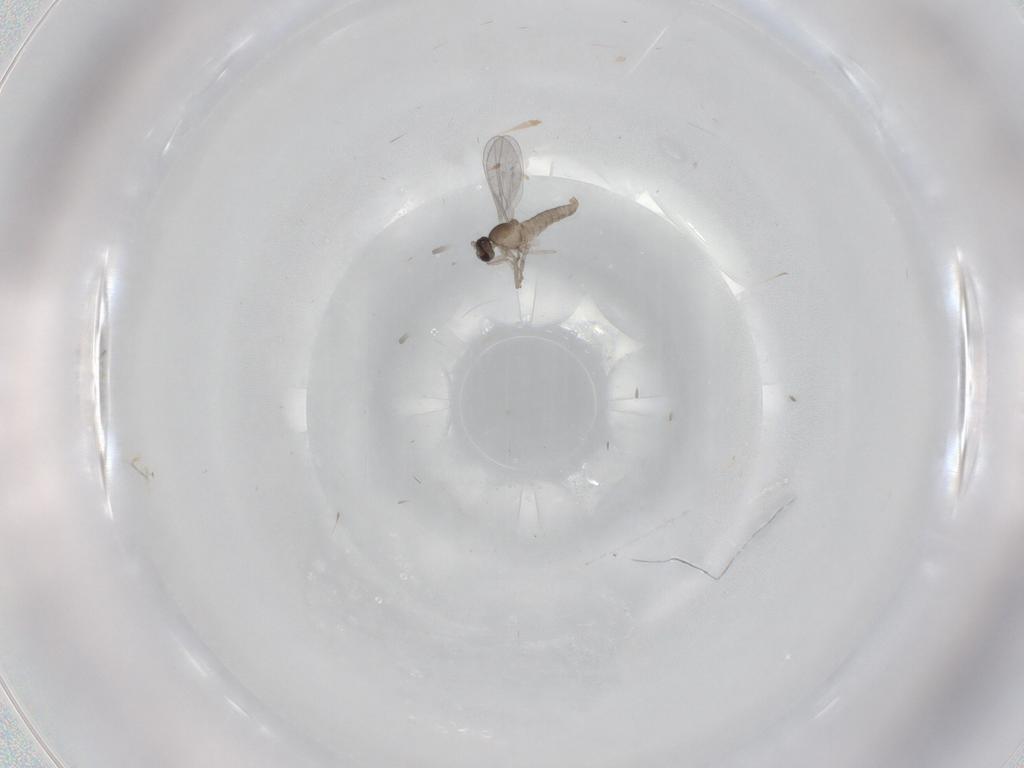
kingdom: Animalia
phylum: Arthropoda
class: Insecta
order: Diptera
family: Cecidomyiidae
